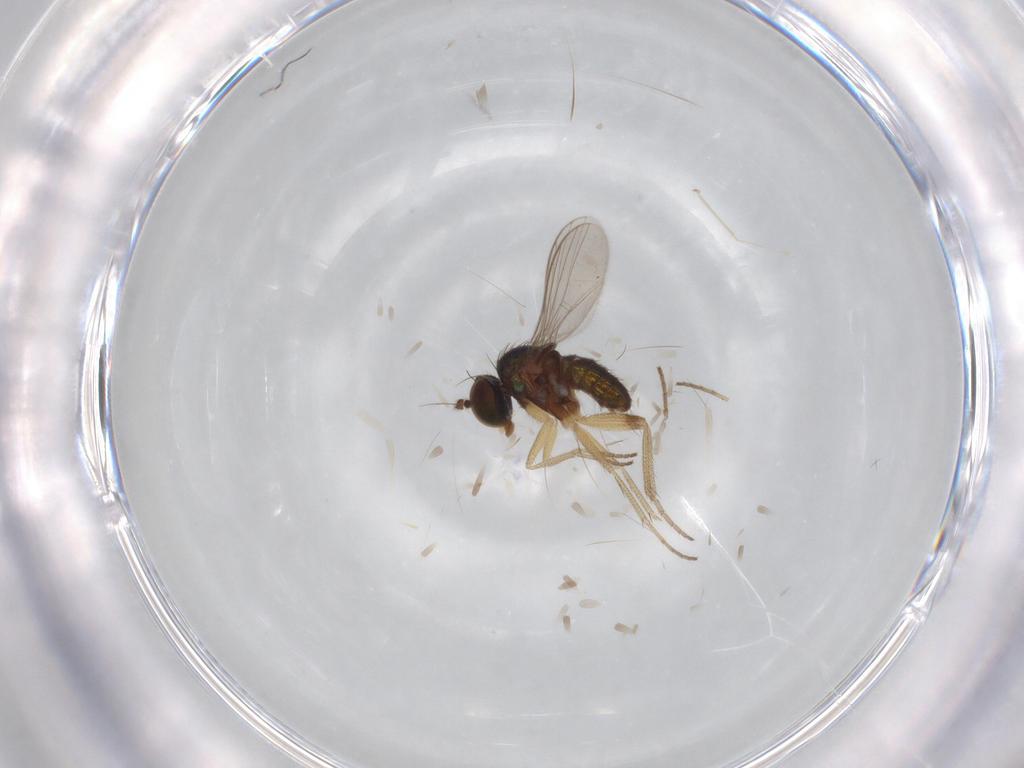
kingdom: Animalia
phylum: Arthropoda
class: Insecta
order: Diptera
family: Cecidomyiidae
